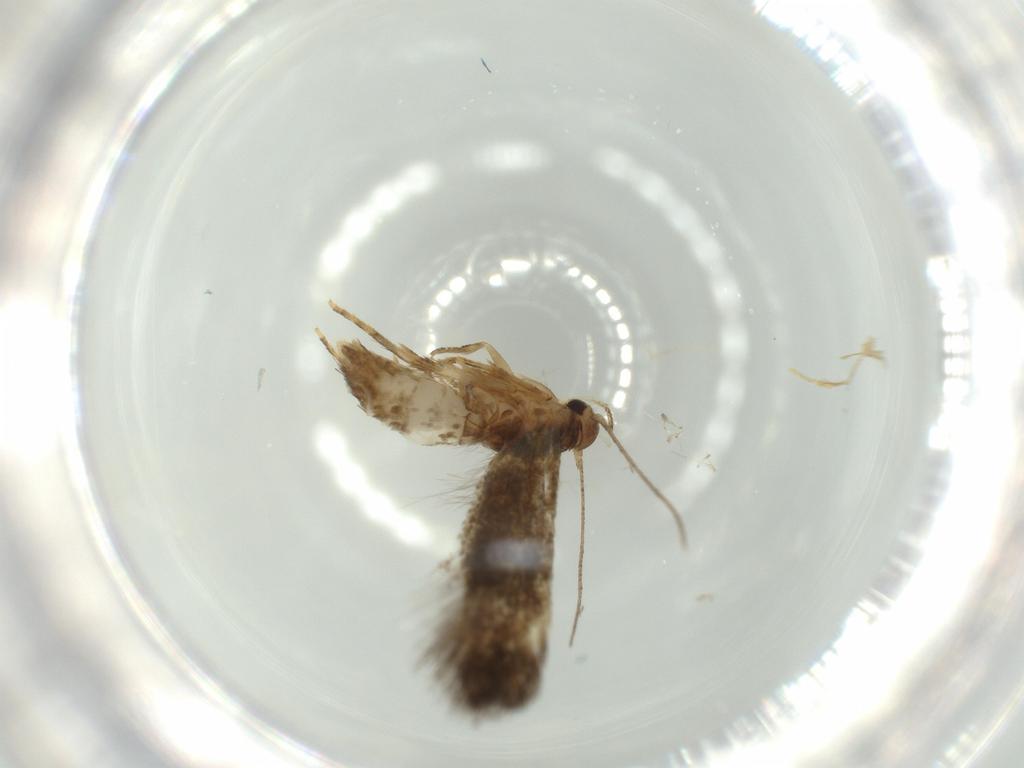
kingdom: Animalia
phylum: Arthropoda
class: Insecta
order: Lepidoptera
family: Gelechiidae
